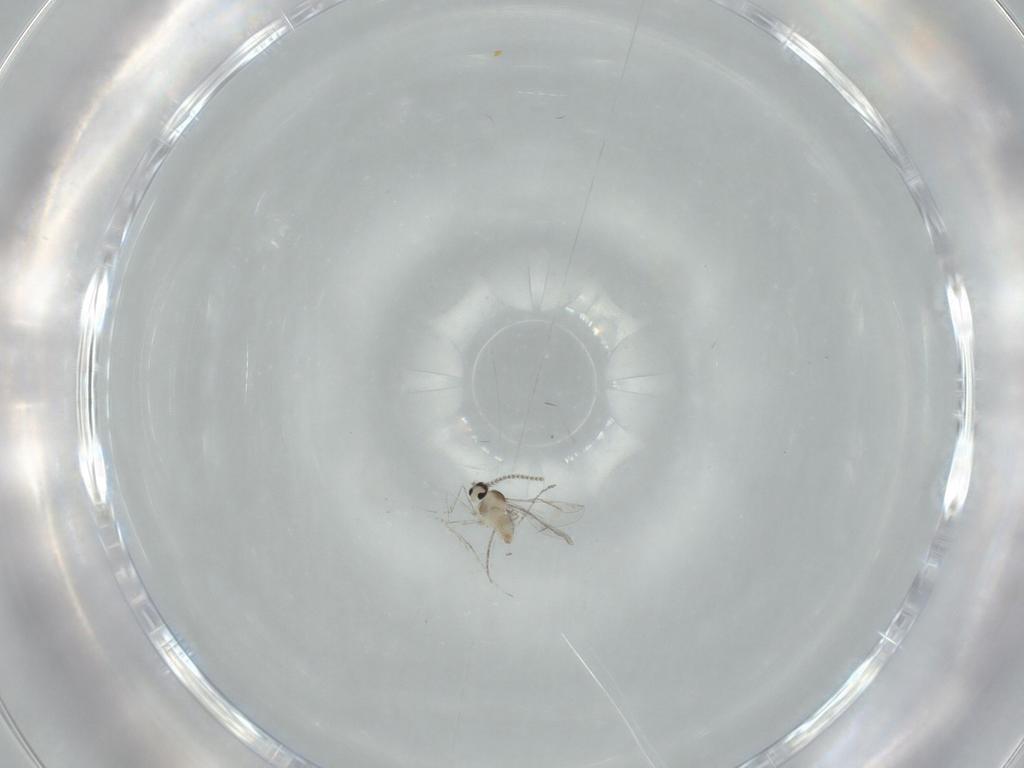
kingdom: Animalia
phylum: Arthropoda
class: Insecta
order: Diptera
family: Cecidomyiidae
